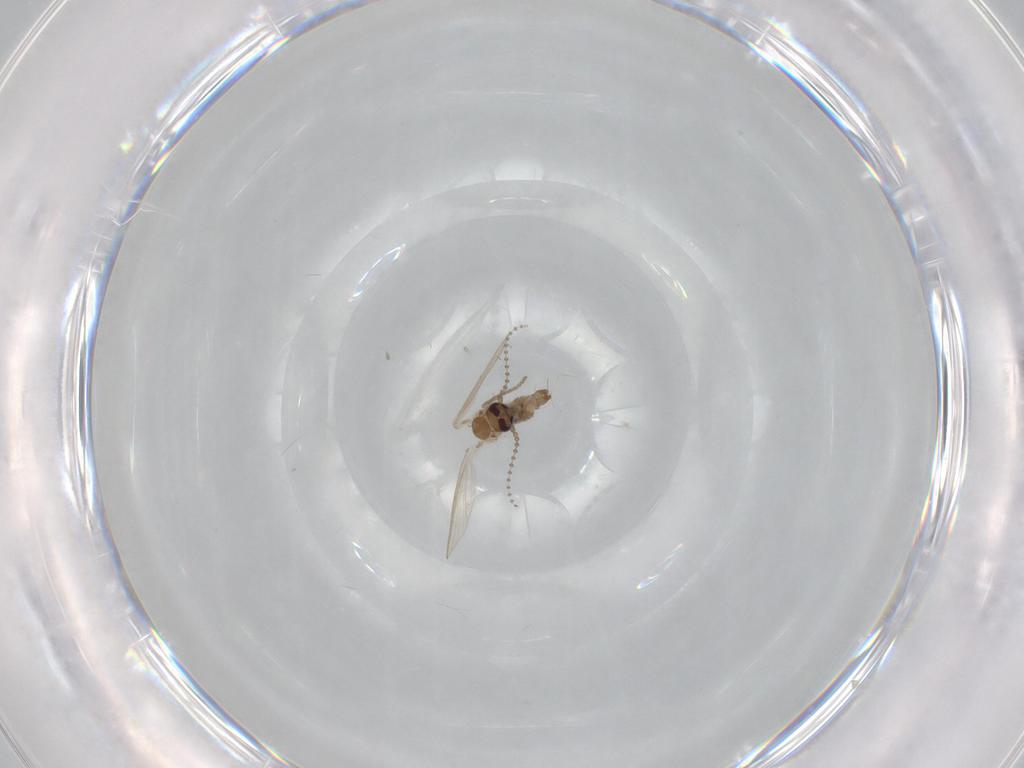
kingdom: Animalia
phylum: Arthropoda
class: Insecta
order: Diptera
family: Psychodidae
